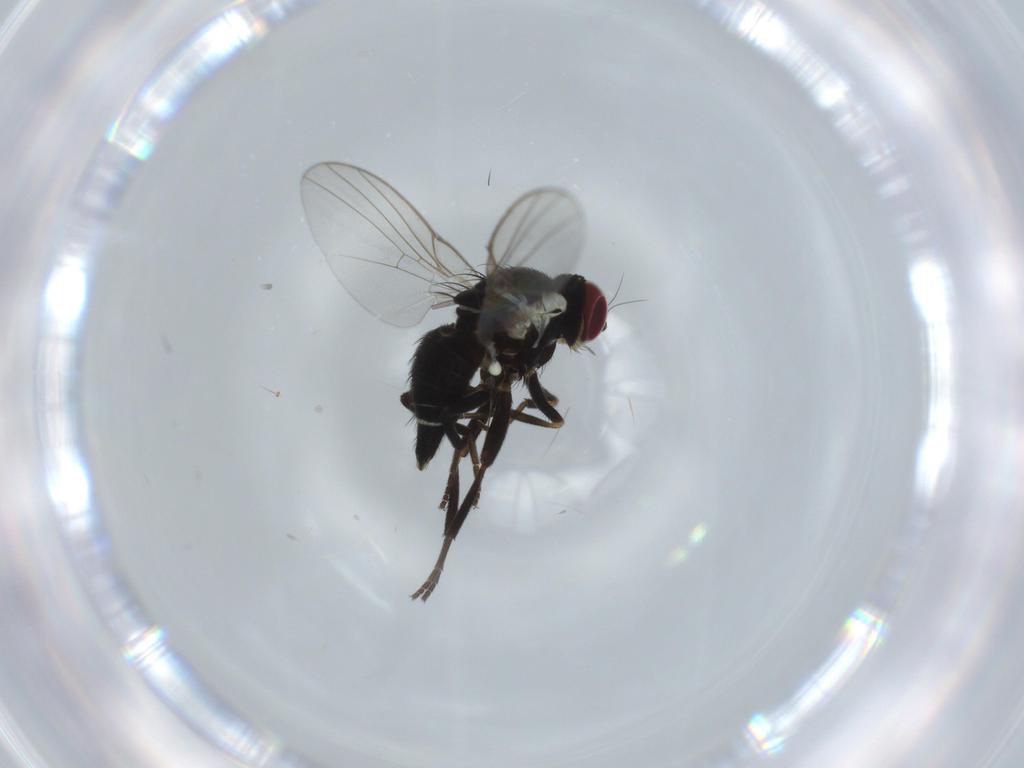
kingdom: Animalia
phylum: Arthropoda
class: Insecta
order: Diptera
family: Agromyzidae
